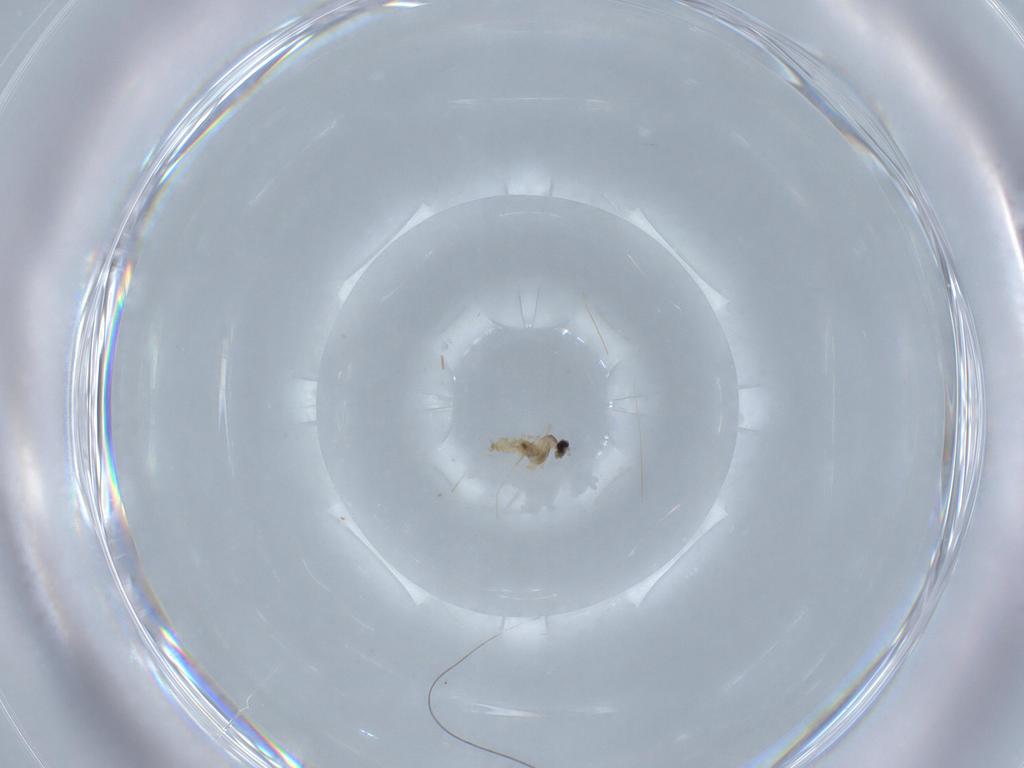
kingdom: Animalia
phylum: Arthropoda
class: Insecta
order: Diptera
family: Cecidomyiidae
